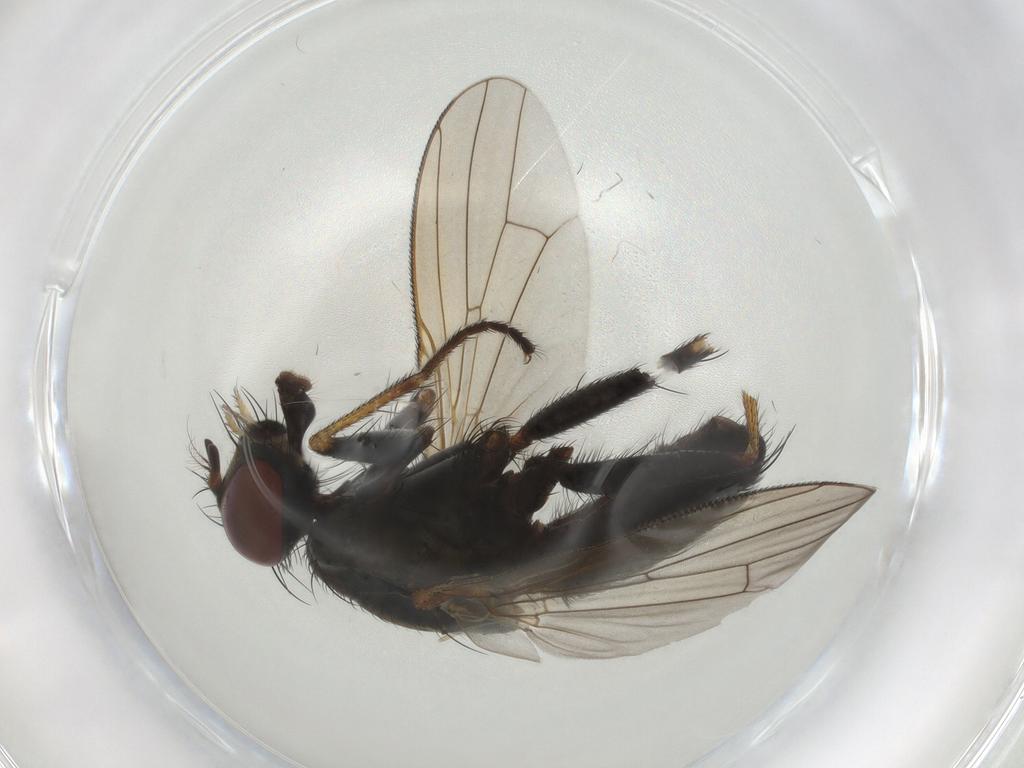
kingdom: Animalia
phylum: Arthropoda
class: Insecta
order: Diptera
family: Muscidae
